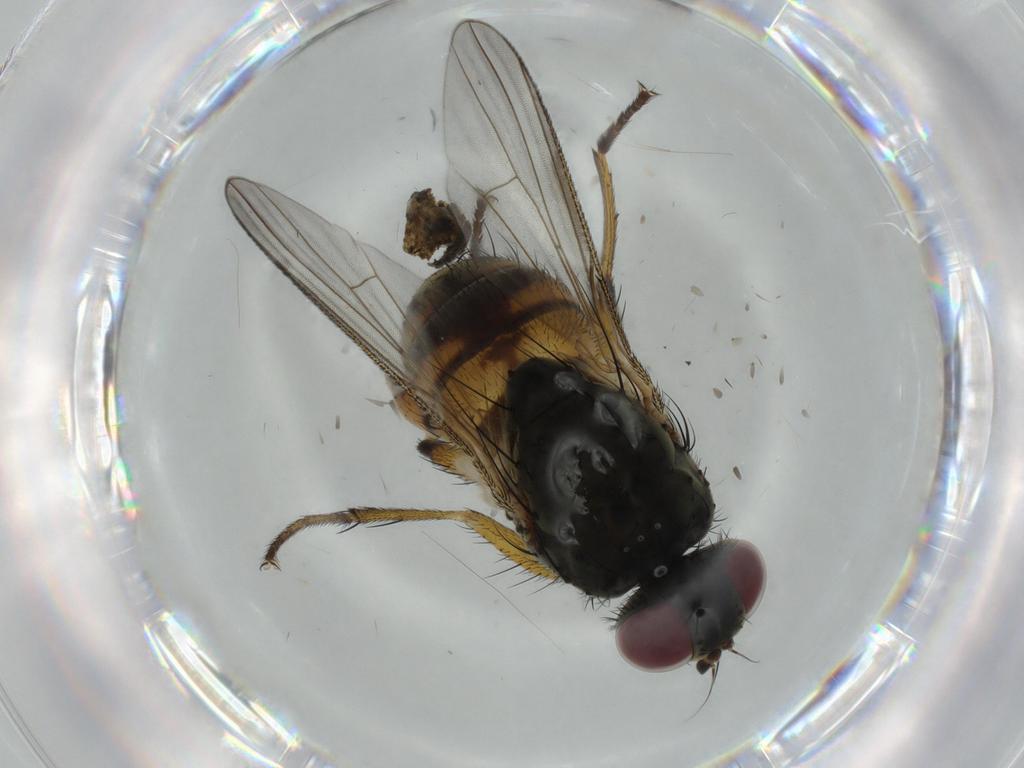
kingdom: Animalia
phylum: Arthropoda
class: Insecta
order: Diptera
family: Muscidae
